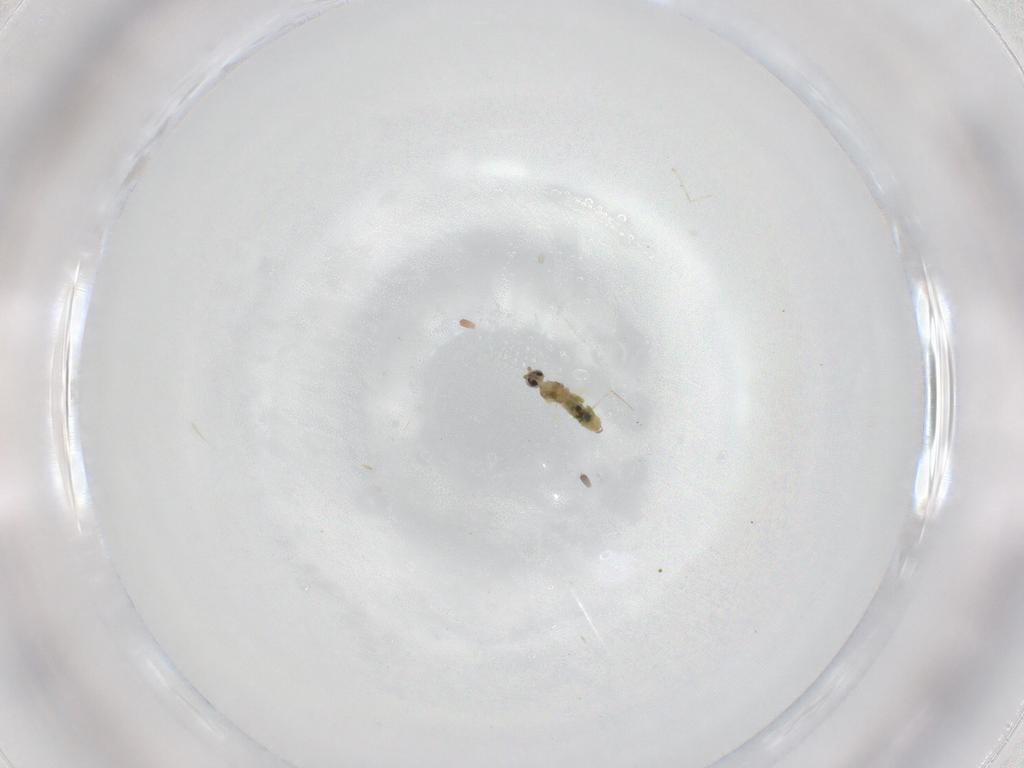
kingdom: Animalia
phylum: Arthropoda
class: Insecta
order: Diptera
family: Cecidomyiidae
